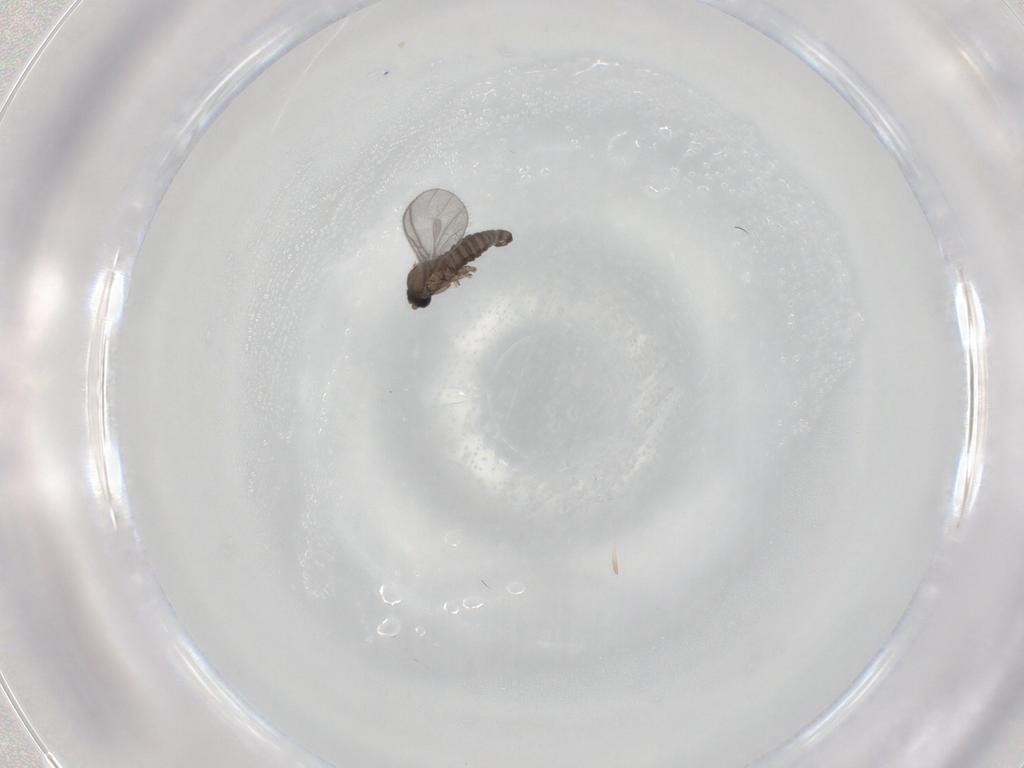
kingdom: Animalia
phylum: Arthropoda
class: Insecta
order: Diptera
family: Sciaridae
